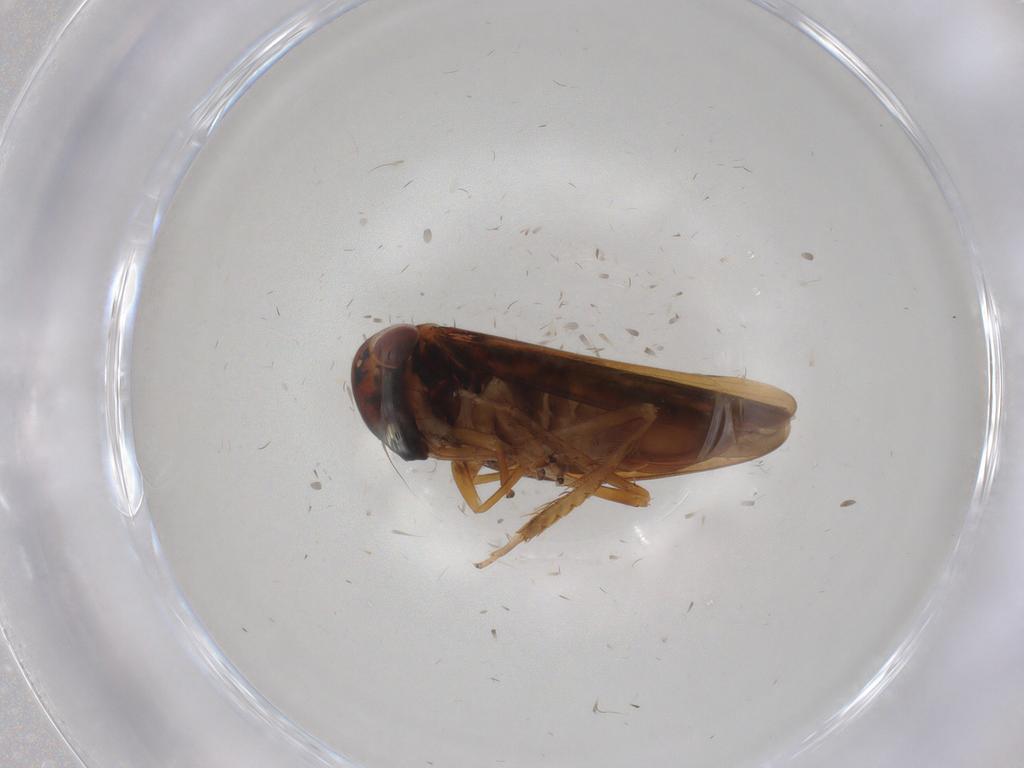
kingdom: Animalia
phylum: Arthropoda
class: Insecta
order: Hemiptera
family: Cicadellidae
